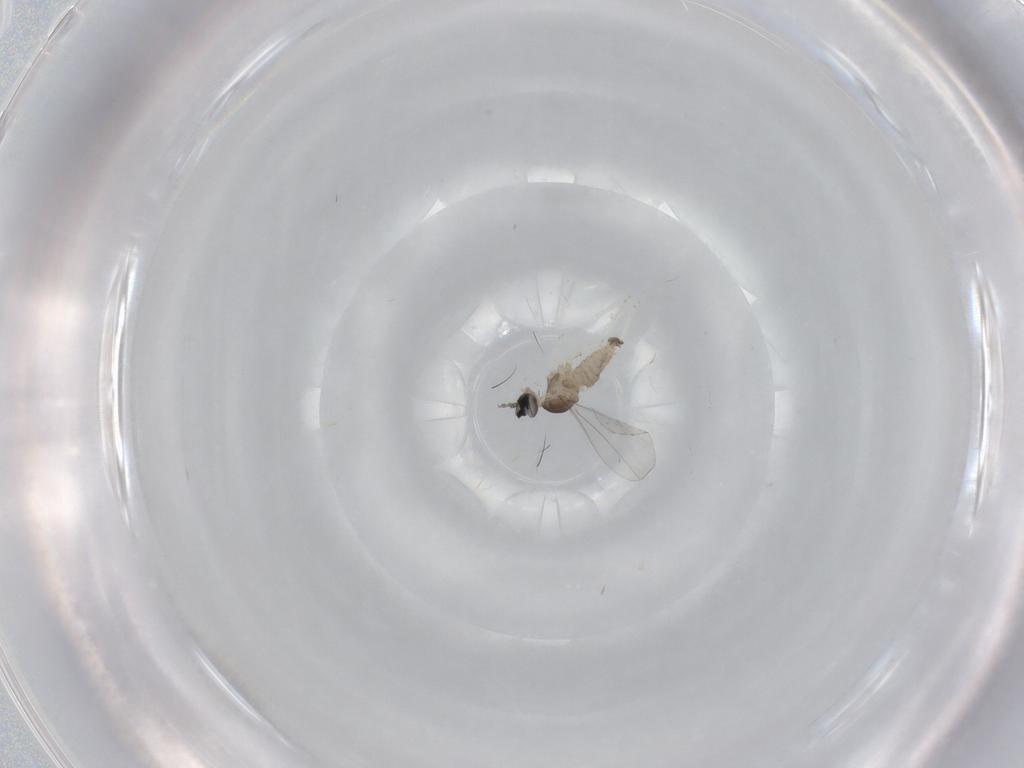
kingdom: Animalia
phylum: Arthropoda
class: Insecta
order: Diptera
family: Cecidomyiidae
